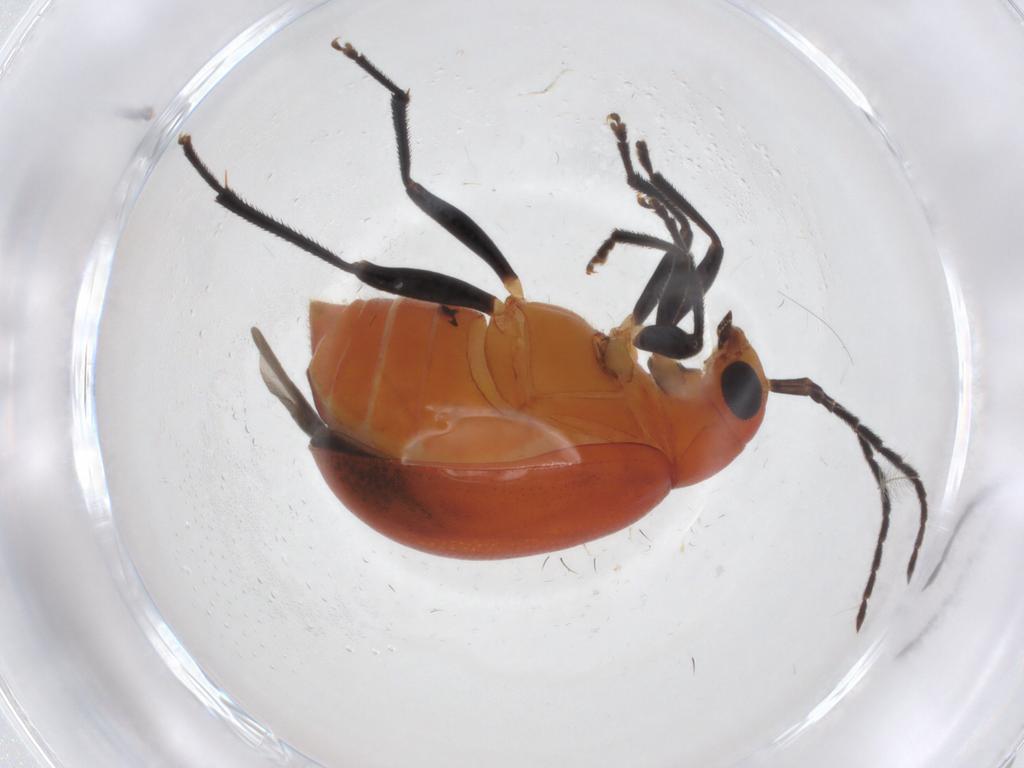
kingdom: Animalia
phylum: Arthropoda
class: Insecta
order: Coleoptera
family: Chrysomelidae
